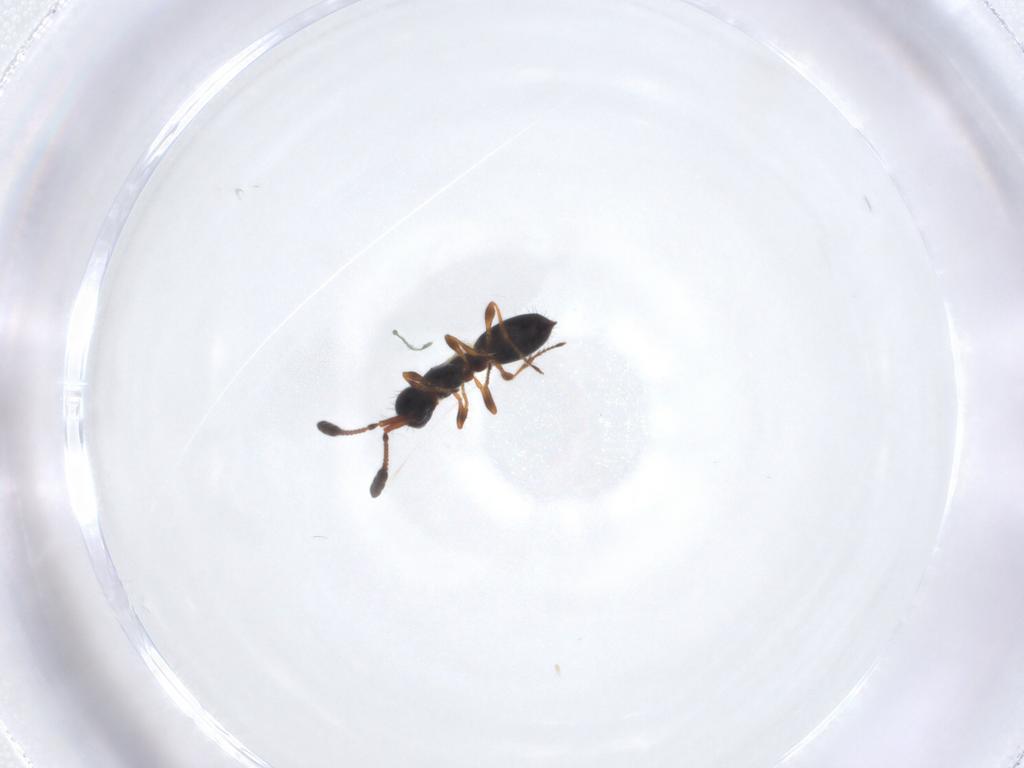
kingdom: Animalia
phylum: Arthropoda
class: Insecta
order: Hymenoptera
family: Diapriidae
